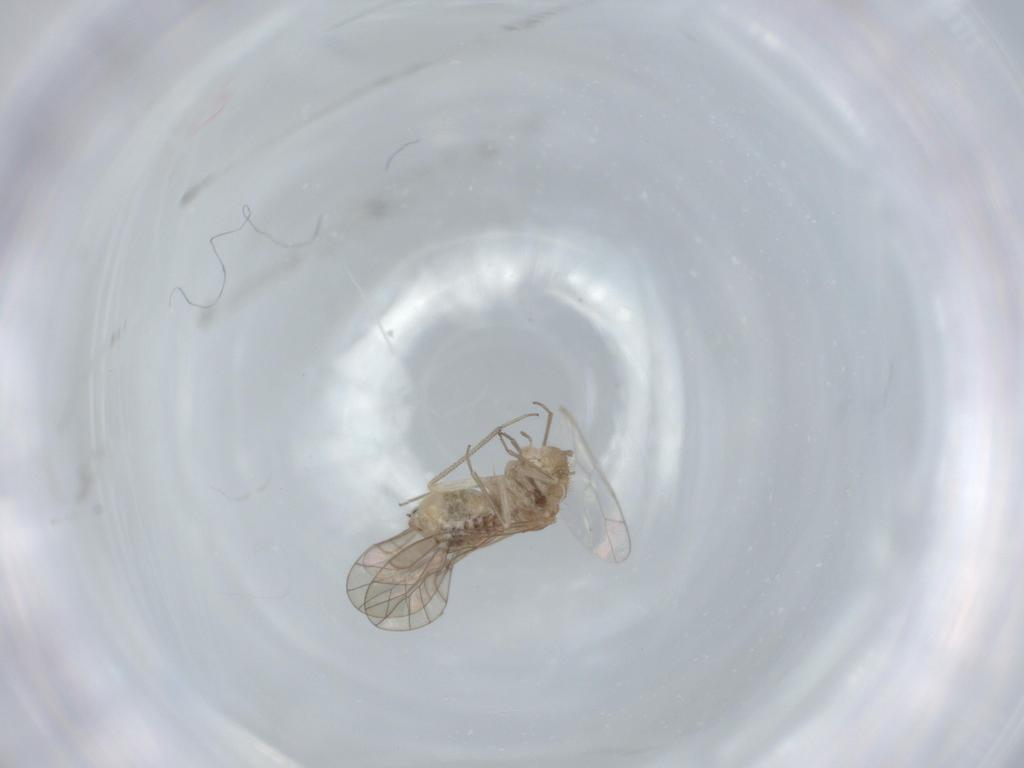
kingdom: Animalia
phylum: Arthropoda
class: Insecta
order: Psocodea
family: Lachesillidae
